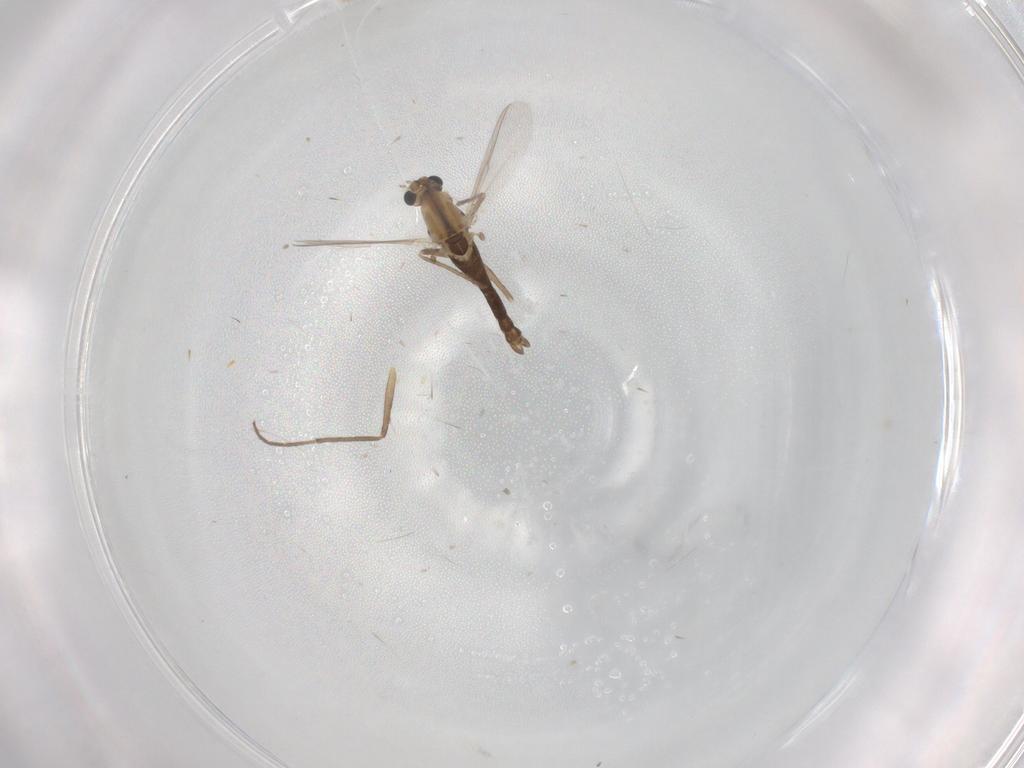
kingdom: Animalia
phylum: Arthropoda
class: Insecta
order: Diptera
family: Chironomidae
